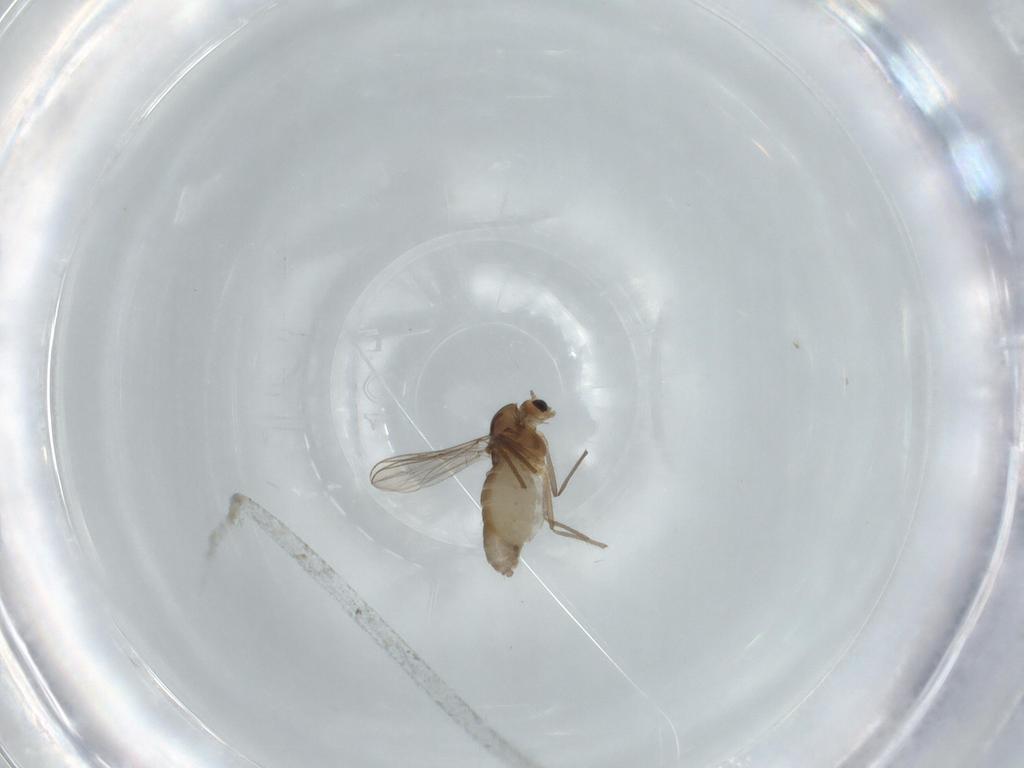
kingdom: Animalia
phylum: Arthropoda
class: Insecta
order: Diptera
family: Chironomidae
